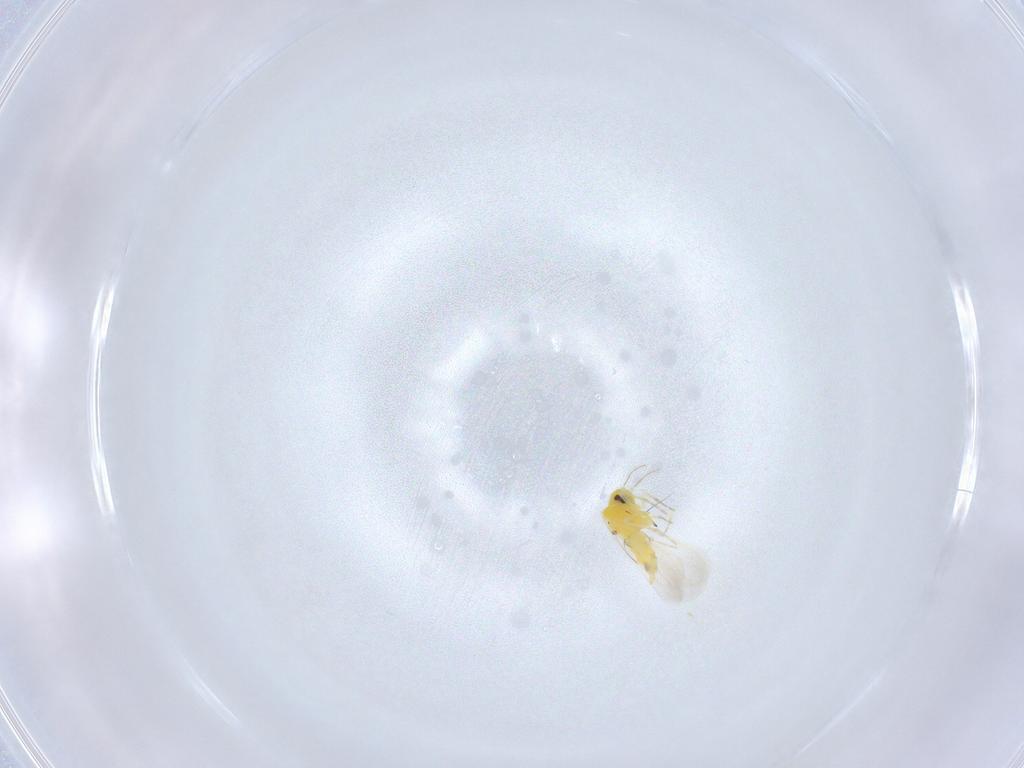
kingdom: Animalia
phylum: Arthropoda
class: Insecta
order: Hemiptera
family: Aleyrodidae
